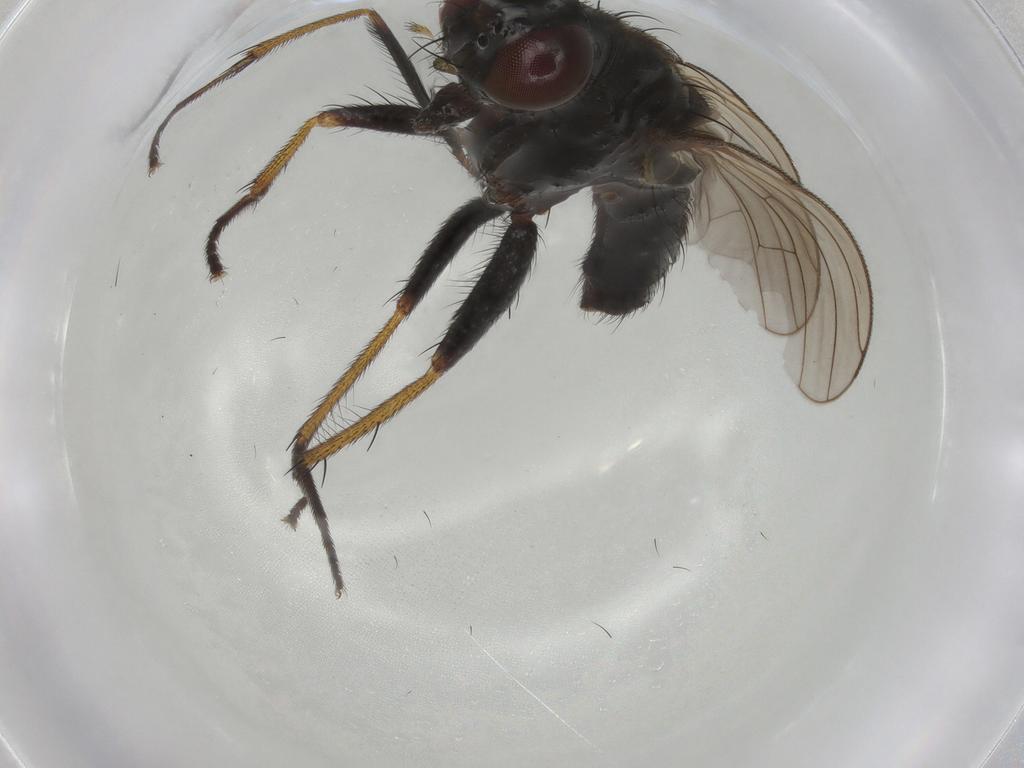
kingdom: Animalia
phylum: Arthropoda
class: Insecta
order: Diptera
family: Muscidae
